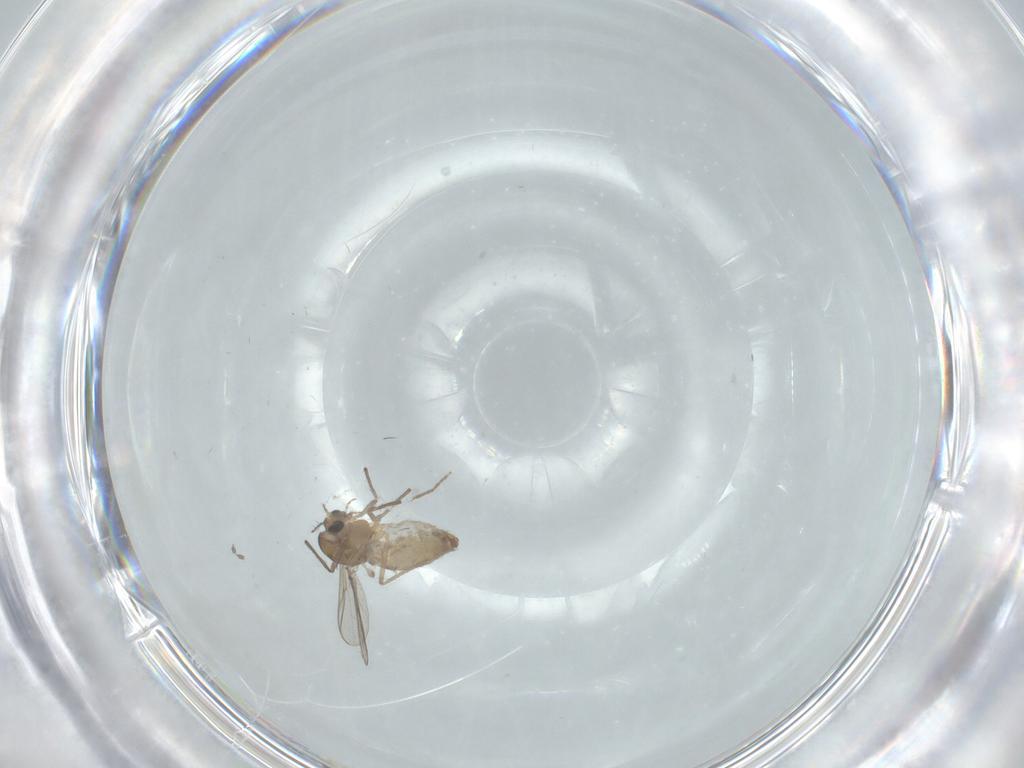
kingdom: Animalia
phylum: Arthropoda
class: Insecta
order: Diptera
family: Chironomidae
